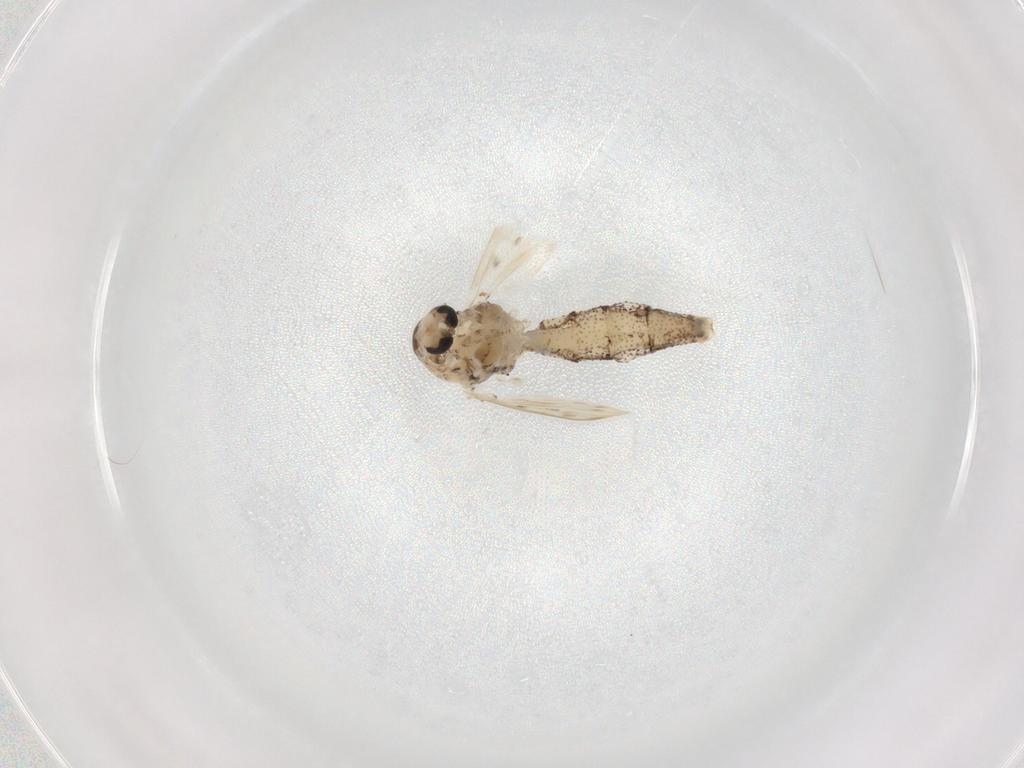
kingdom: Animalia
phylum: Arthropoda
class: Insecta
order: Diptera
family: Chaoboridae
